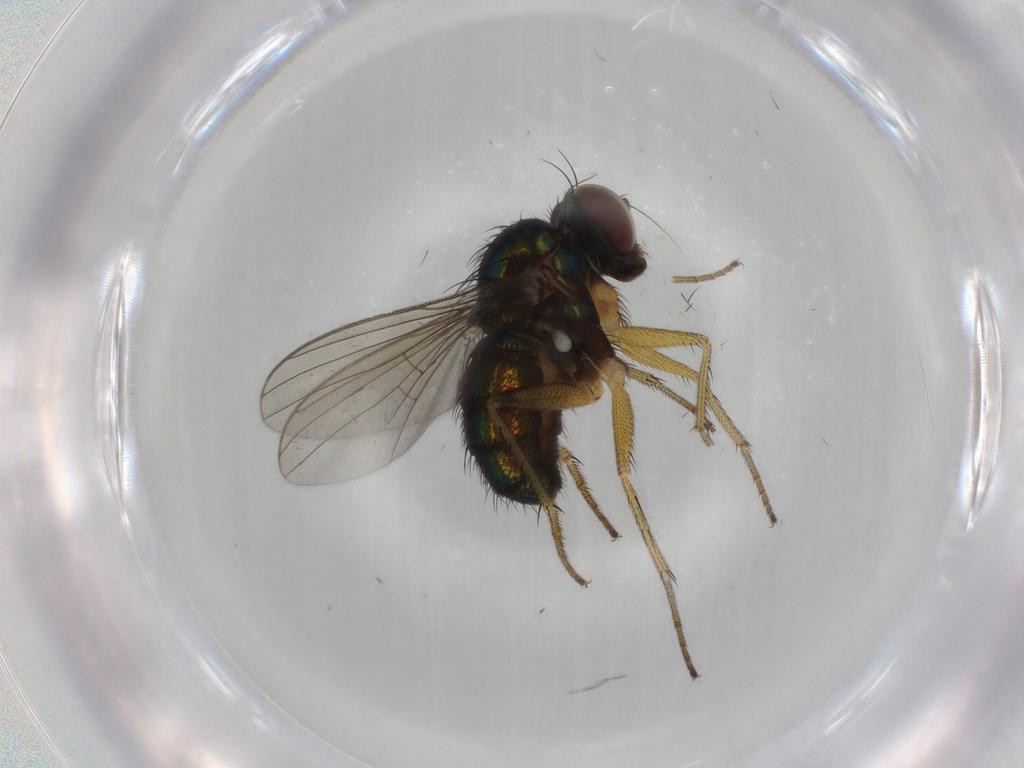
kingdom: Animalia
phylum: Arthropoda
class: Insecta
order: Diptera
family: Dolichopodidae
